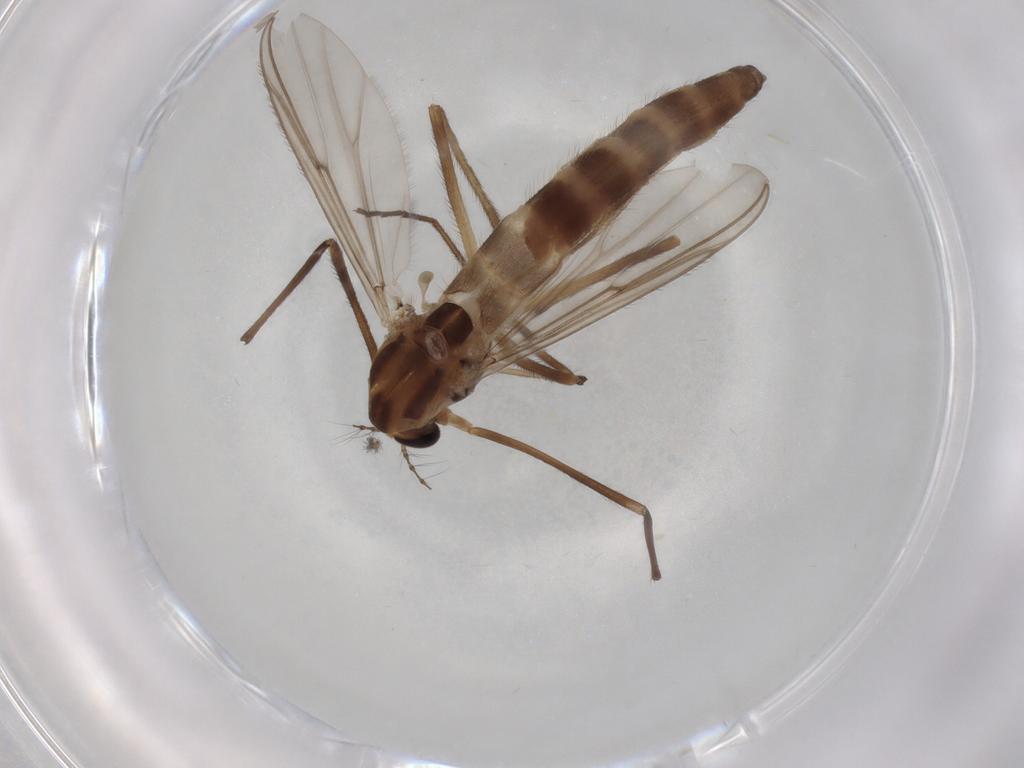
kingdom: Animalia
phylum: Arthropoda
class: Insecta
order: Diptera
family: Chironomidae
